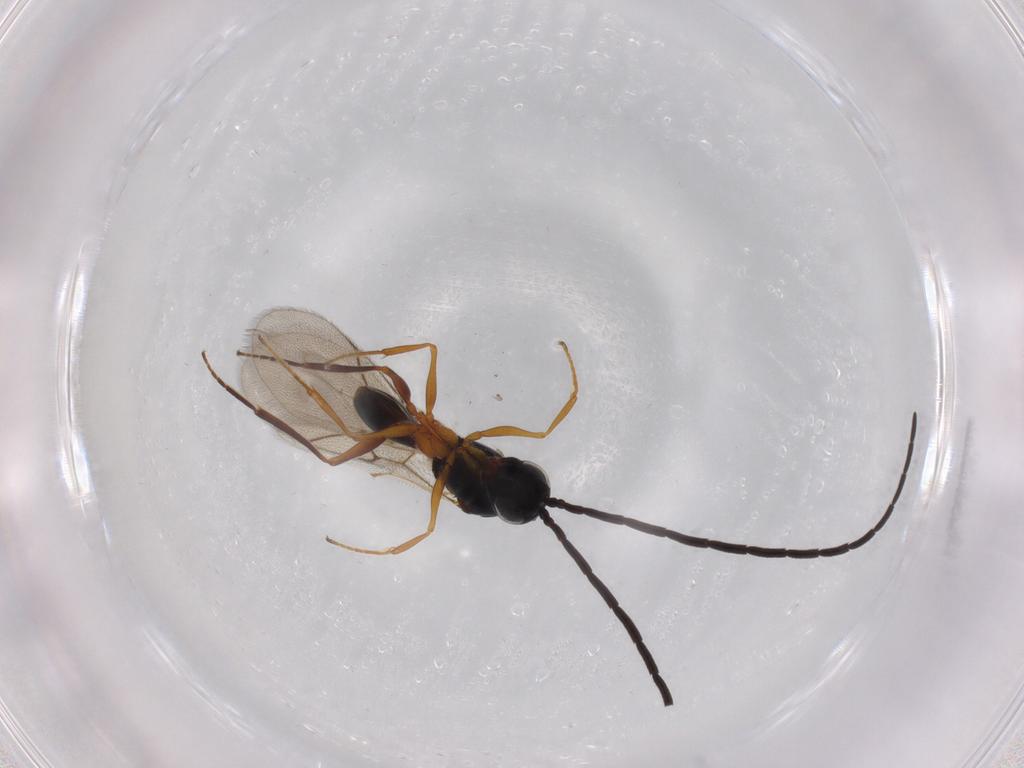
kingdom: Animalia
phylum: Arthropoda
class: Insecta
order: Hymenoptera
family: Figitidae
